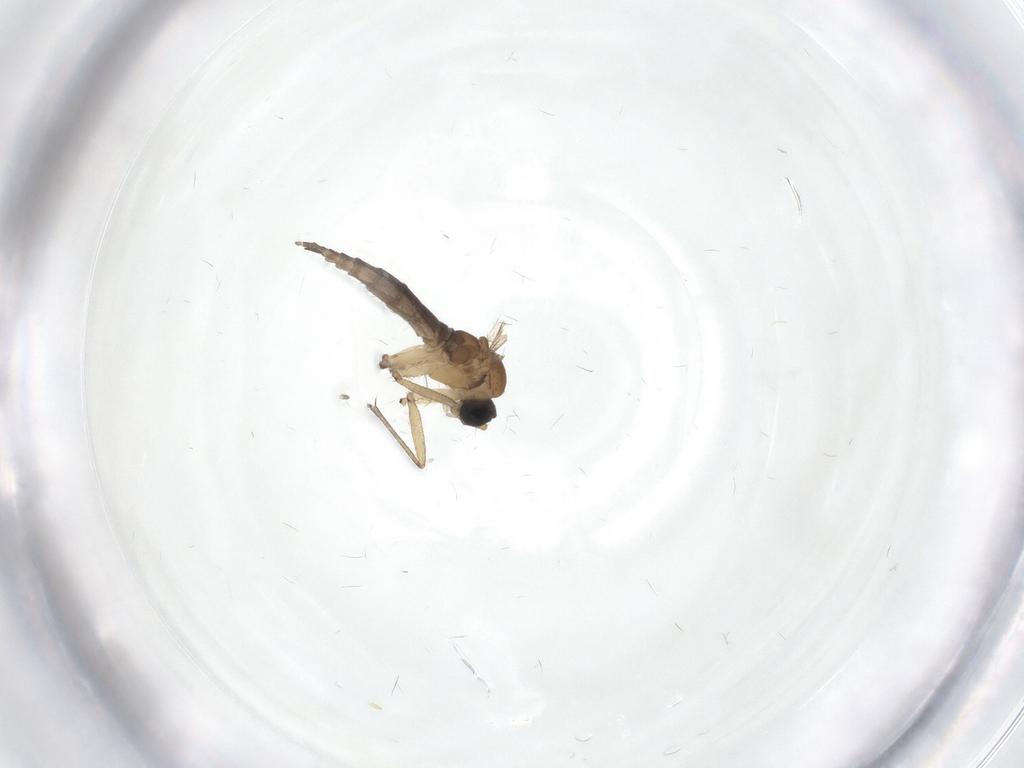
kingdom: Animalia
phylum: Arthropoda
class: Insecta
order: Diptera
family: Sciaridae
